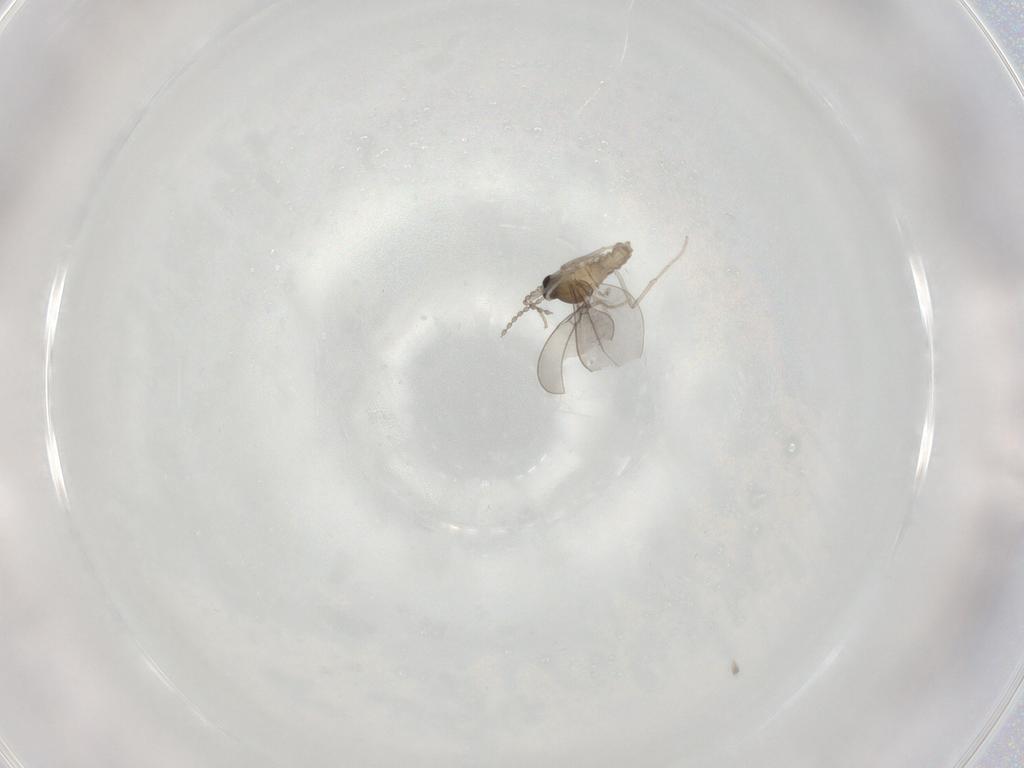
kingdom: Animalia
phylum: Arthropoda
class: Insecta
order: Diptera
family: Cecidomyiidae
